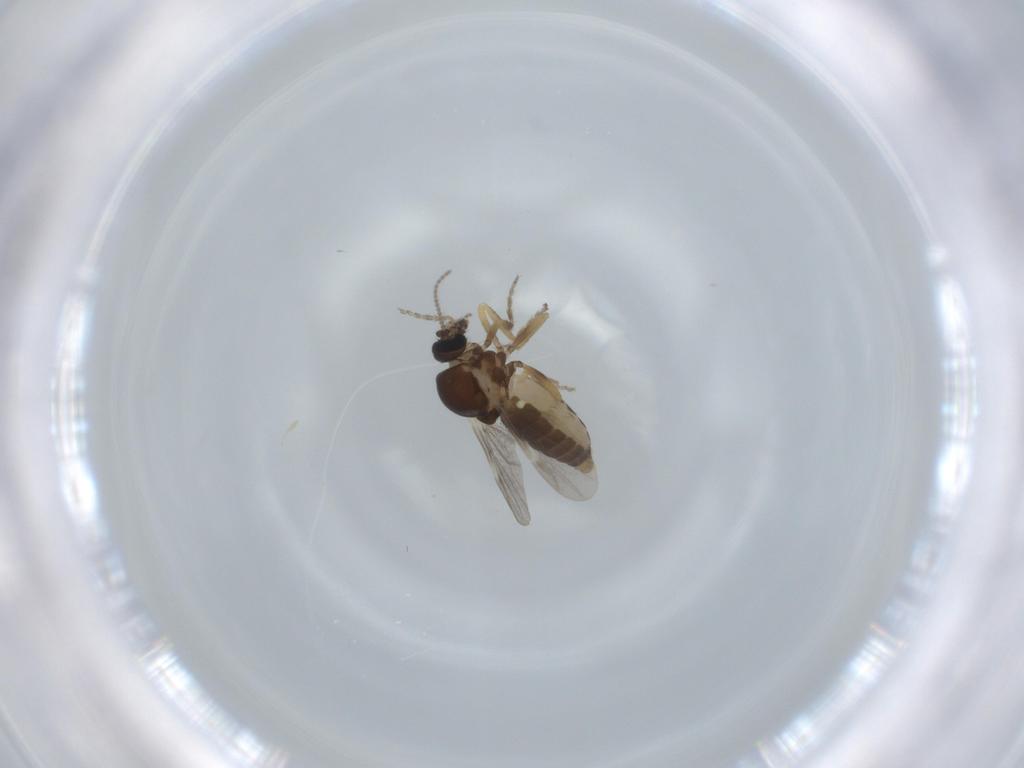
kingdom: Animalia
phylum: Arthropoda
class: Insecta
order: Diptera
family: Ceratopogonidae
